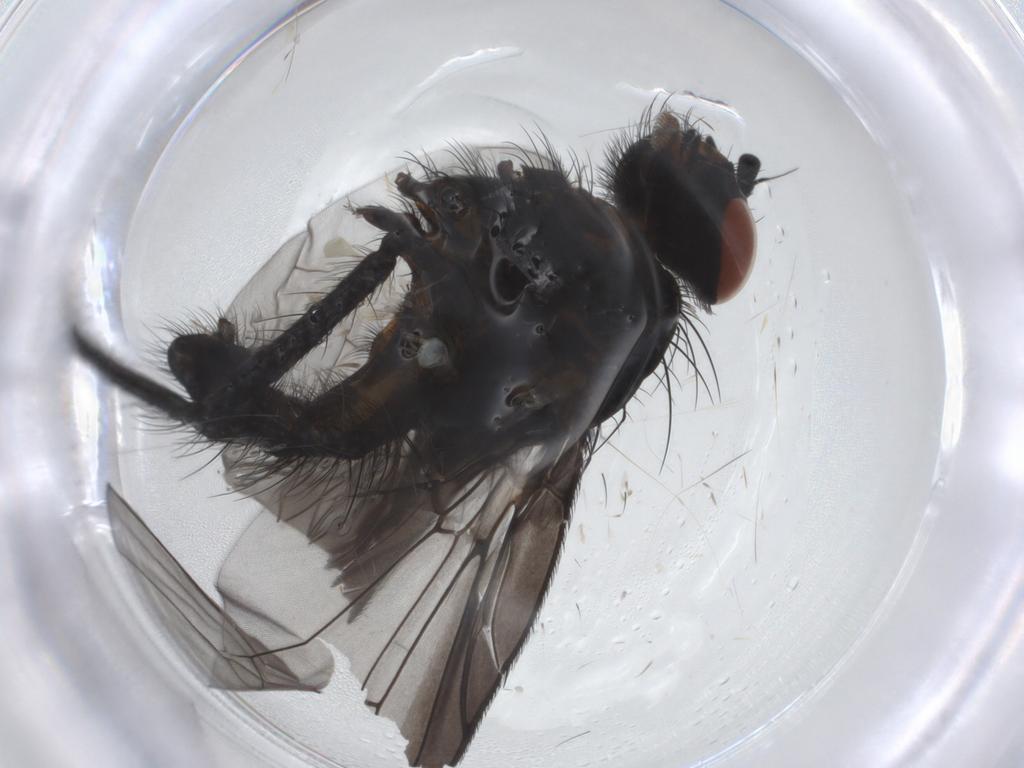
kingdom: Animalia
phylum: Arthropoda
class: Insecta
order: Diptera
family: Anthomyiidae
